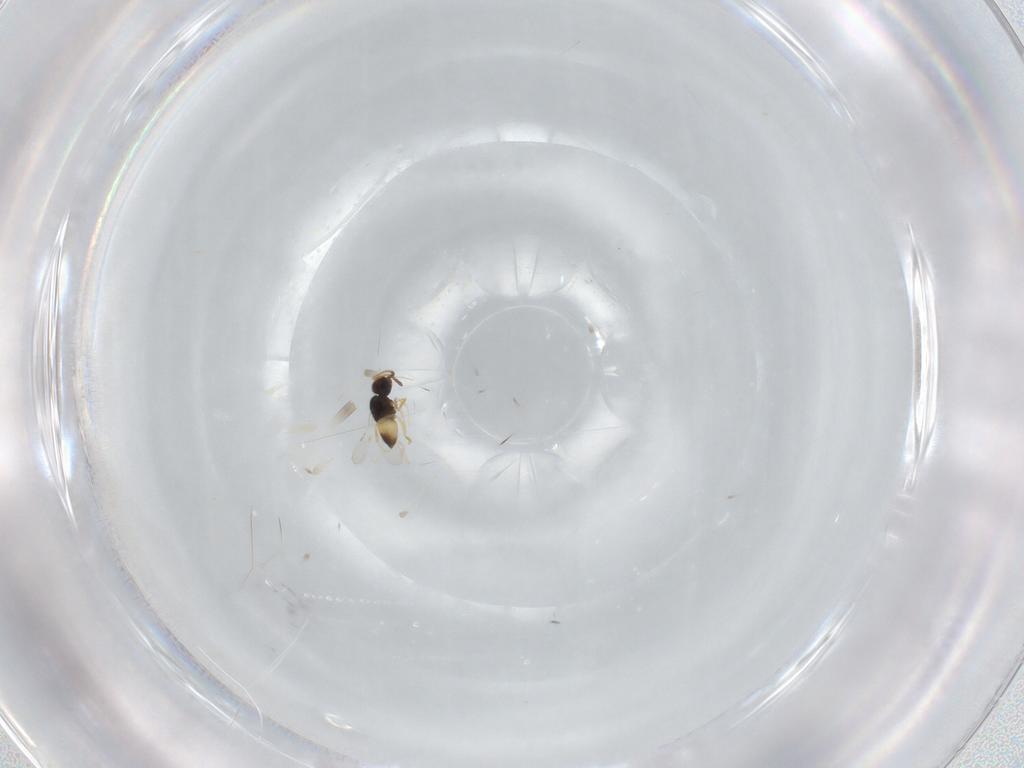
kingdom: Animalia
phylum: Arthropoda
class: Insecta
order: Hymenoptera
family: Ceraphronidae
